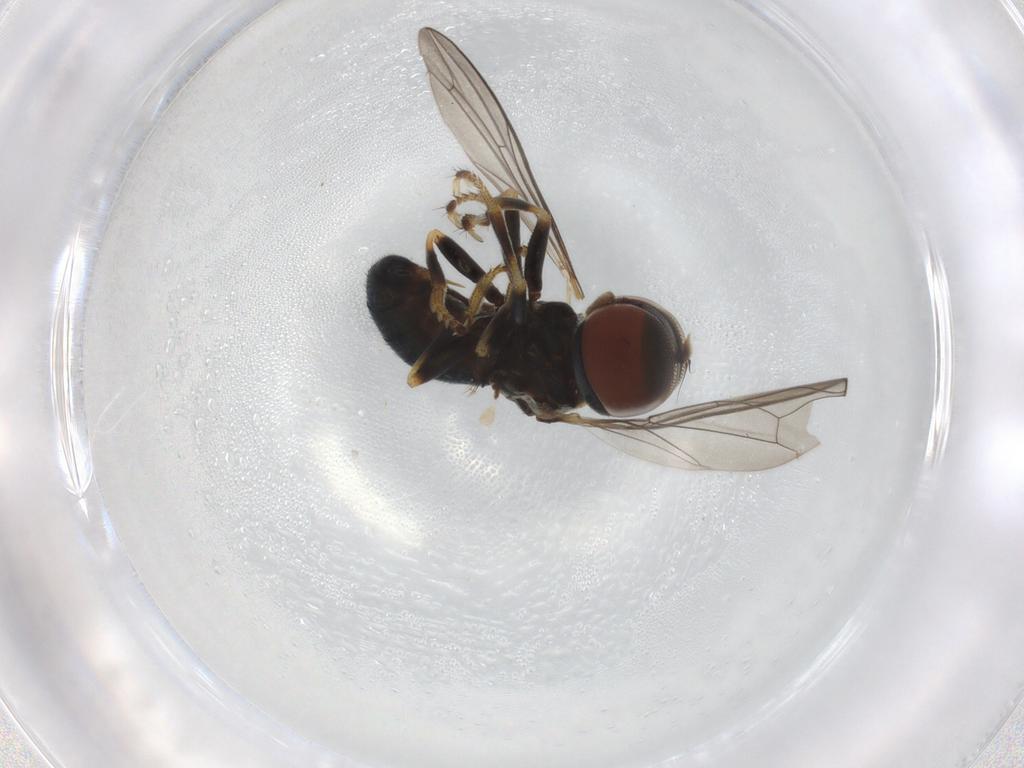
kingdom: Animalia
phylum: Arthropoda
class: Insecta
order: Diptera
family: Pipunculidae
